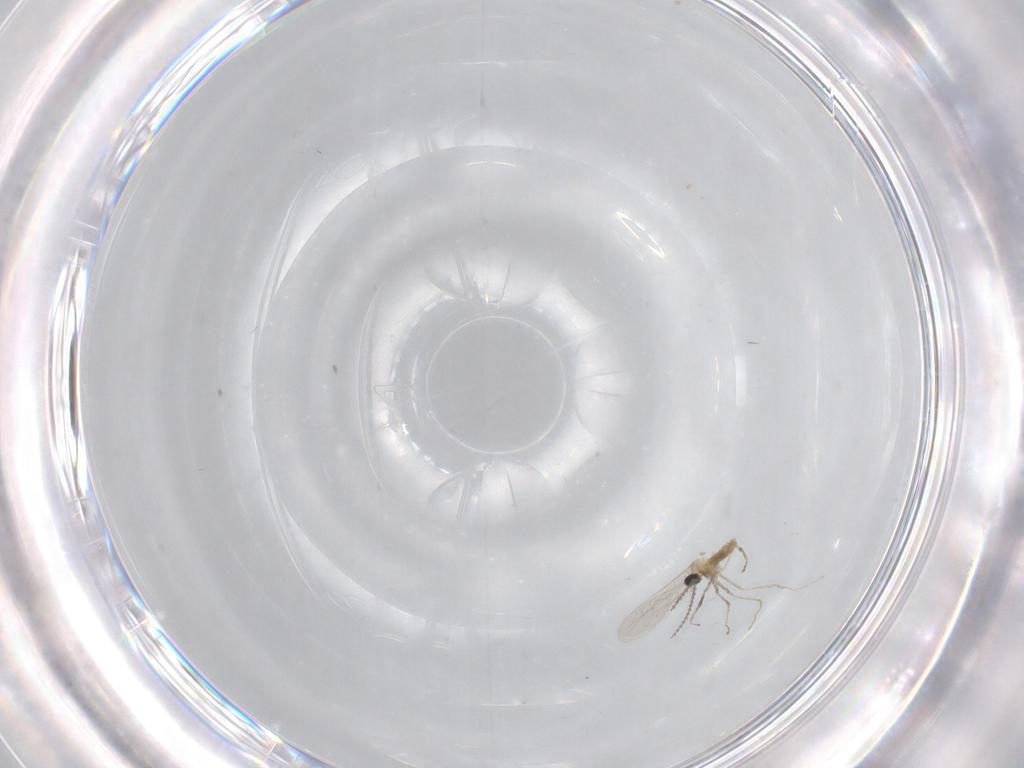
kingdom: Animalia
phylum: Arthropoda
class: Insecta
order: Diptera
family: Cecidomyiidae
